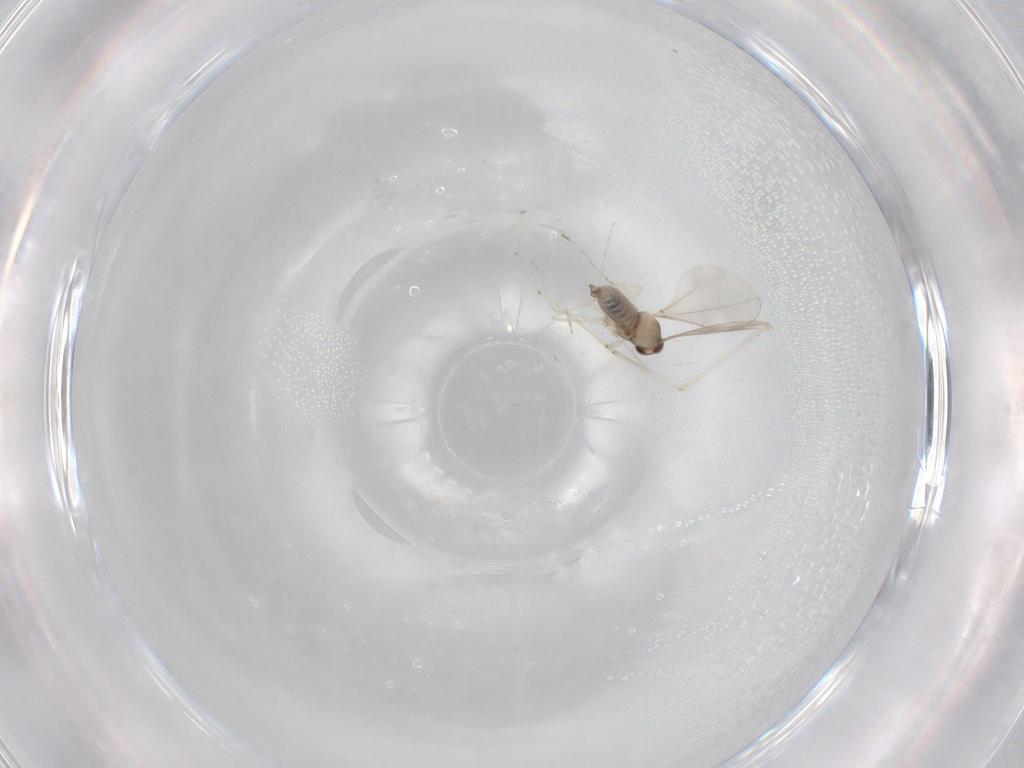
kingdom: Animalia
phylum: Arthropoda
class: Insecta
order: Diptera
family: Cecidomyiidae
